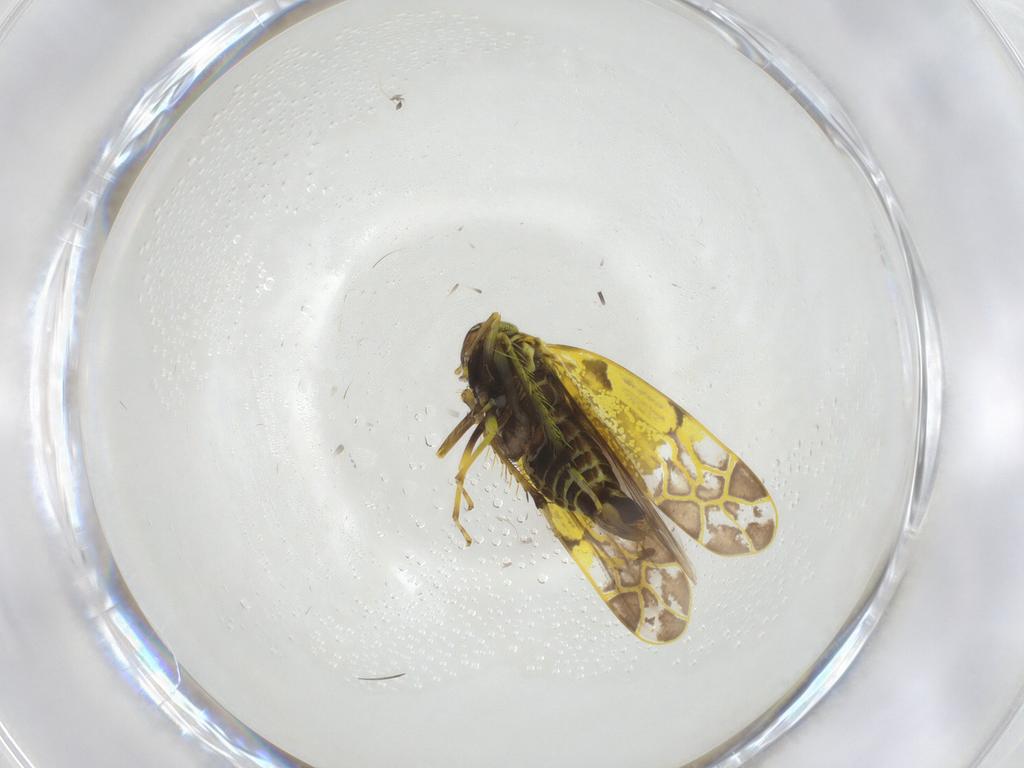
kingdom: Animalia
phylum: Arthropoda
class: Insecta
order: Hemiptera
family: Cicadellidae
